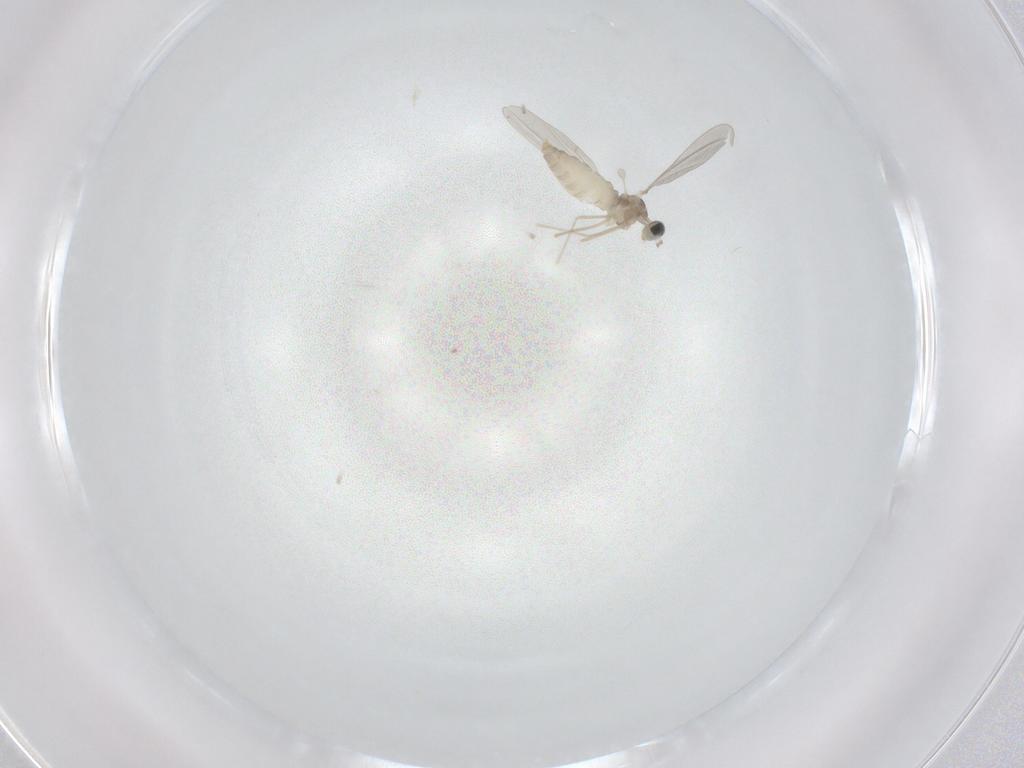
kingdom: Animalia
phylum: Arthropoda
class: Insecta
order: Diptera
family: Cecidomyiidae
